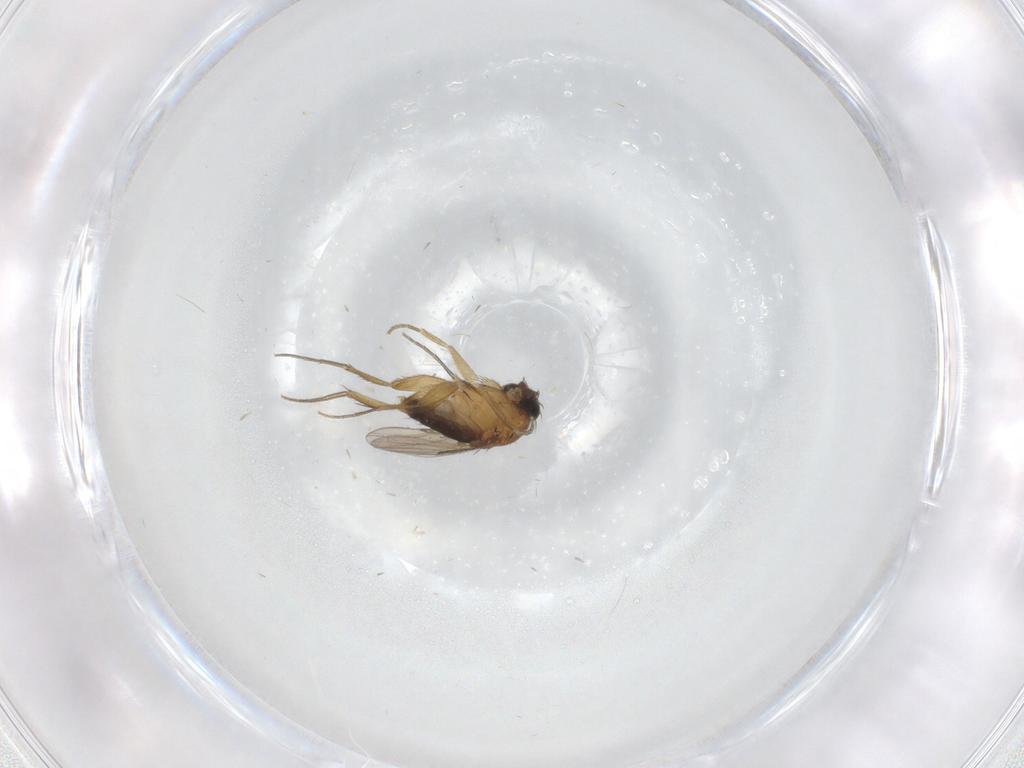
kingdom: Animalia
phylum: Arthropoda
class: Insecta
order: Diptera
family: Phoridae
